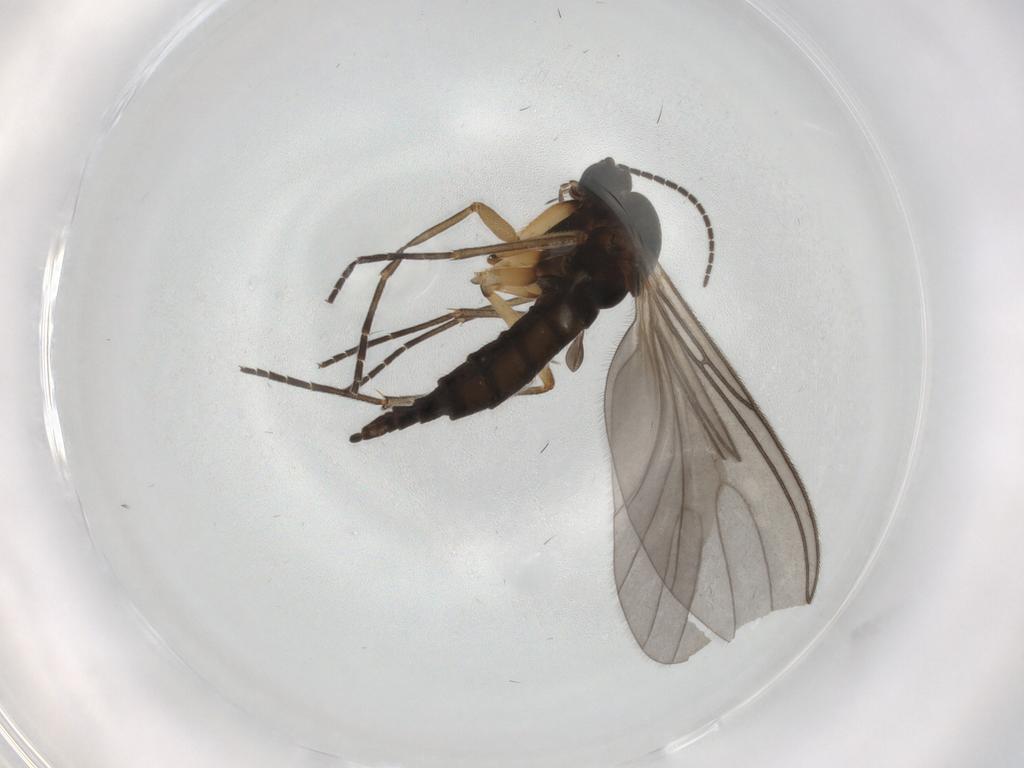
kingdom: Animalia
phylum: Arthropoda
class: Insecta
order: Diptera
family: Sciaridae
